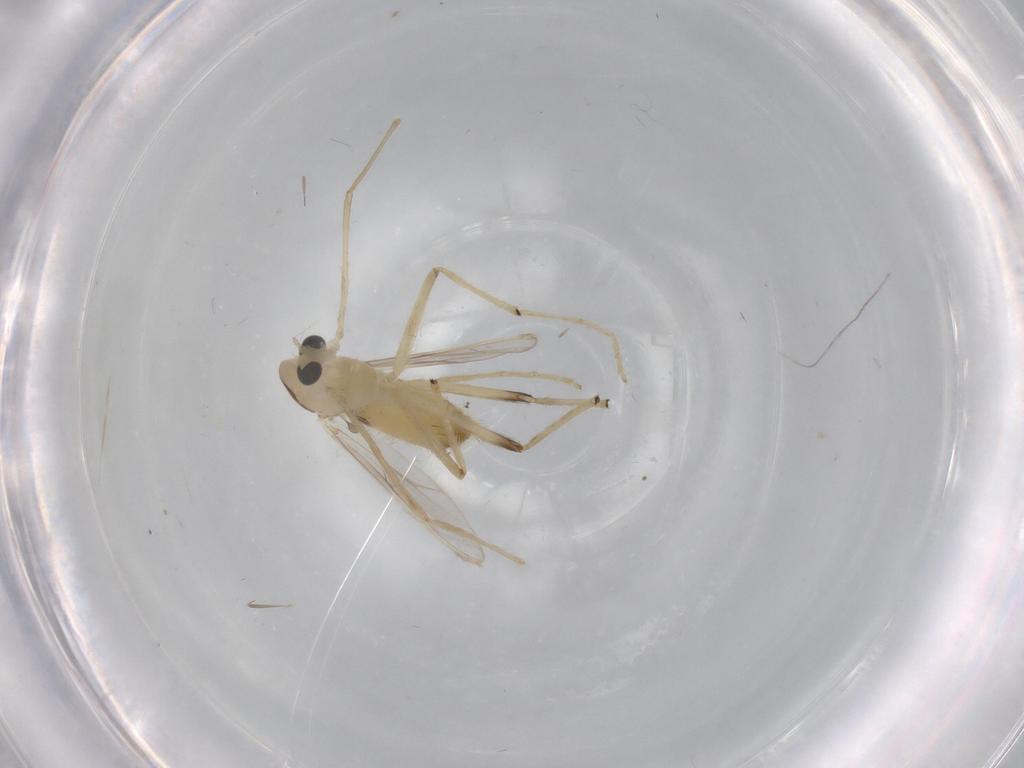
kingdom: Animalia
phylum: Arthropoda
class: Insecta
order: Diptera
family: Chironomidae
